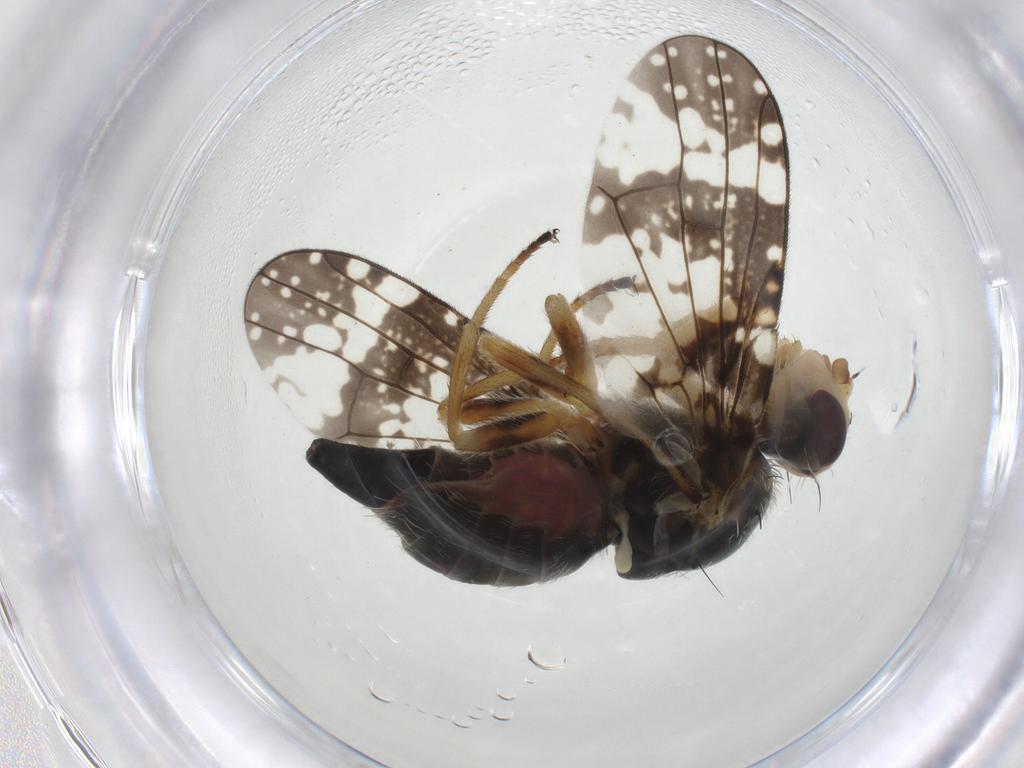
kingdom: Animalia
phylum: Arthropoda
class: Insecta
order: Diptera
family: Tephritidae
